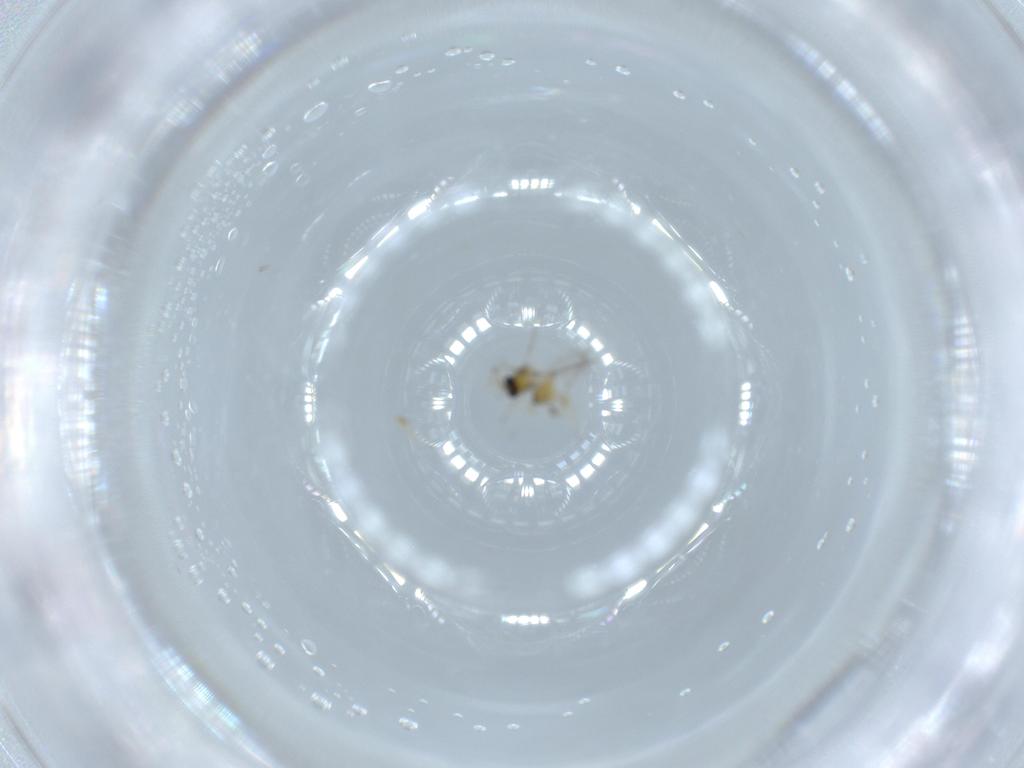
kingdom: Animalia
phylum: Arthropoda
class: Insecta
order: Hymenoptera
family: Trichogrammatidae
